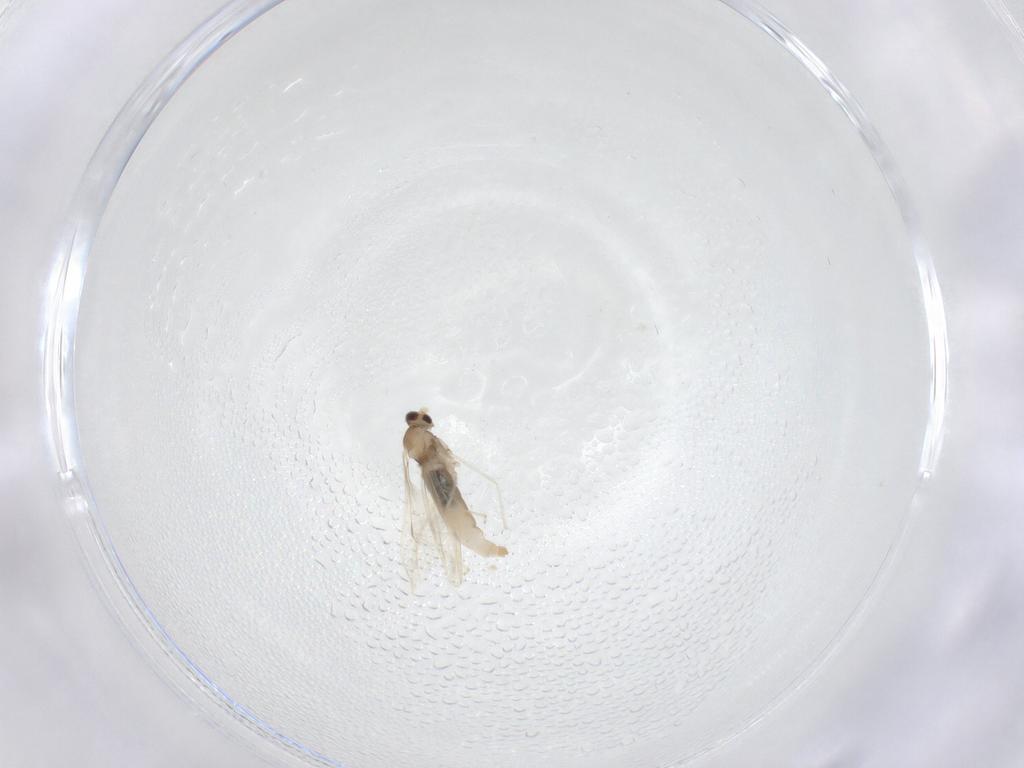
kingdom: Animalia
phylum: Arthropoda
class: Insecta
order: Diptera
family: Cecidomyiidae
